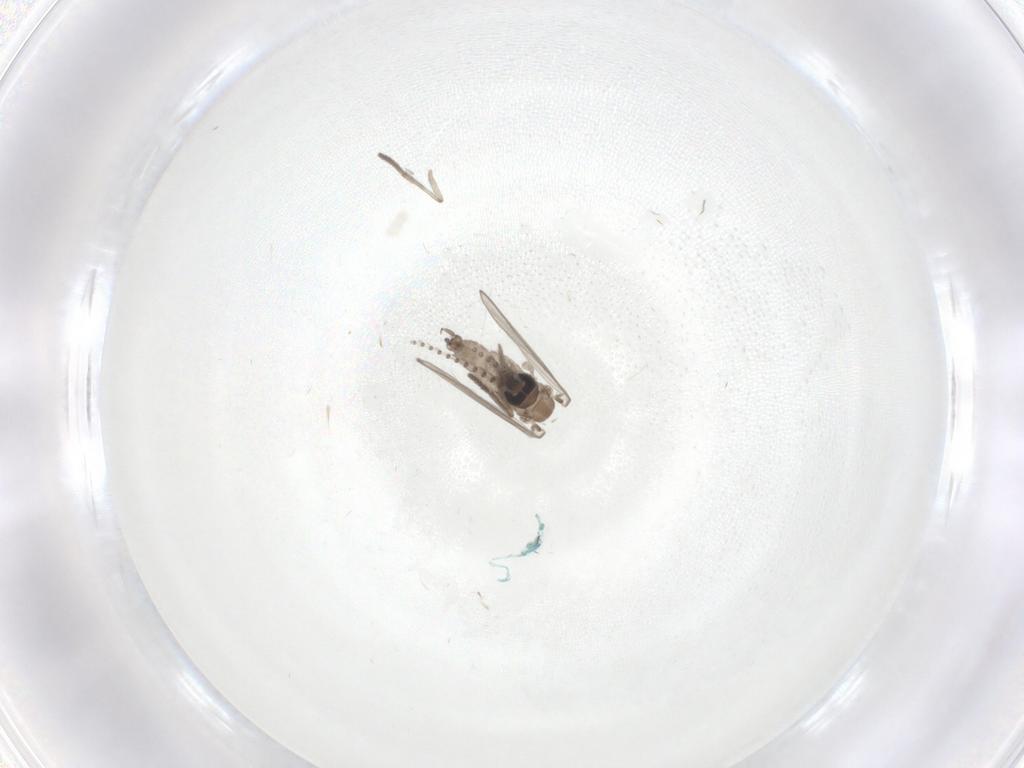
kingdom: Animalia
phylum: Arthropoda
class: Insecta
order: Diptera
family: Psychodidae
